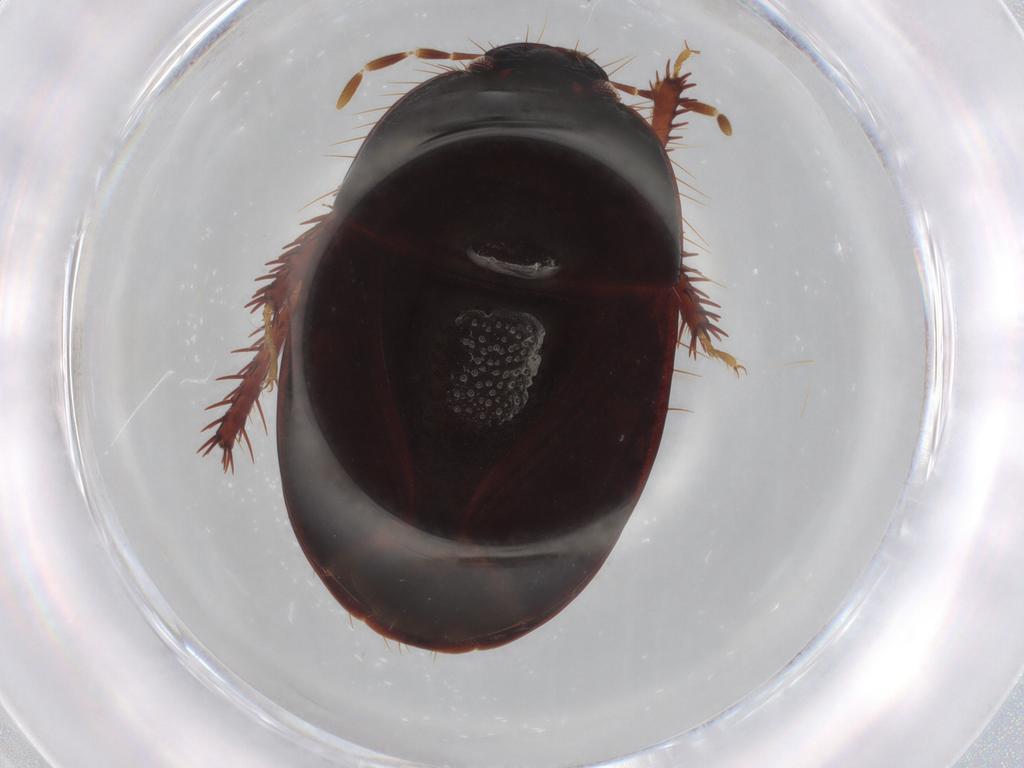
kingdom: Animalia
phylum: Arthropoda
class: Insecta
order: Hemiptera
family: Cydnidae
